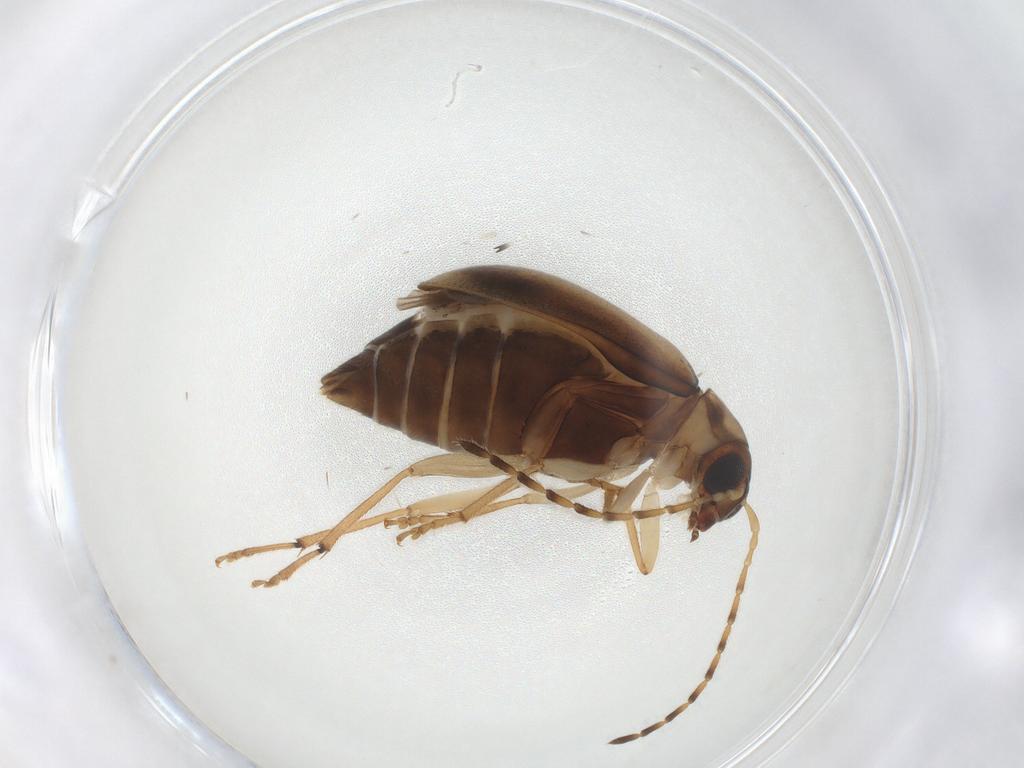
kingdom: Animalia
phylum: Arthropoda
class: Insecta
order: Coleoptera
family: Chrysomelidae
